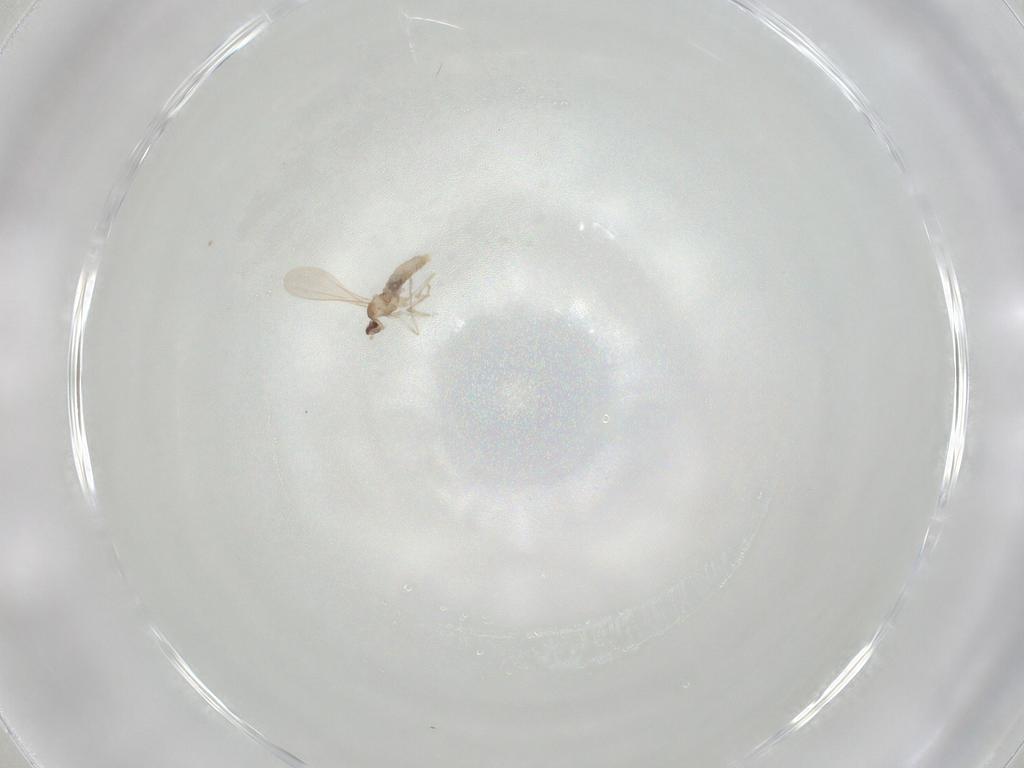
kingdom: Animalia
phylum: Arthropoda
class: Insecta
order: Diptera
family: Cecidomyiidae
